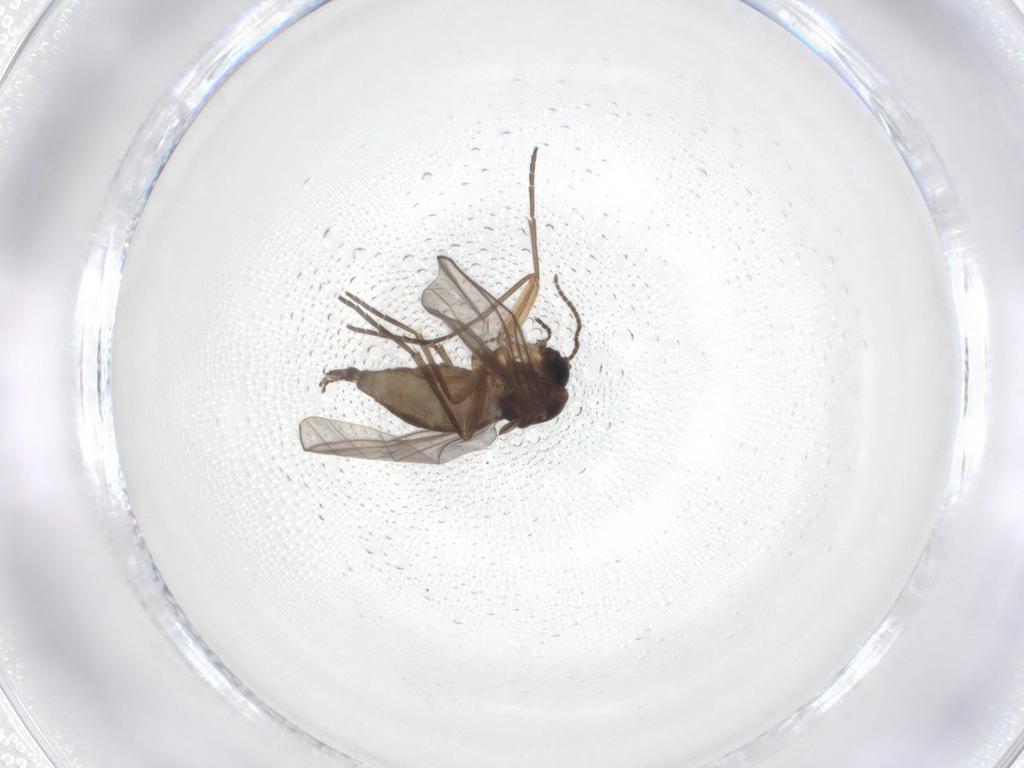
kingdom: Animalia
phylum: Arthropoda
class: Insecta
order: Diptera
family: Sciaridae
